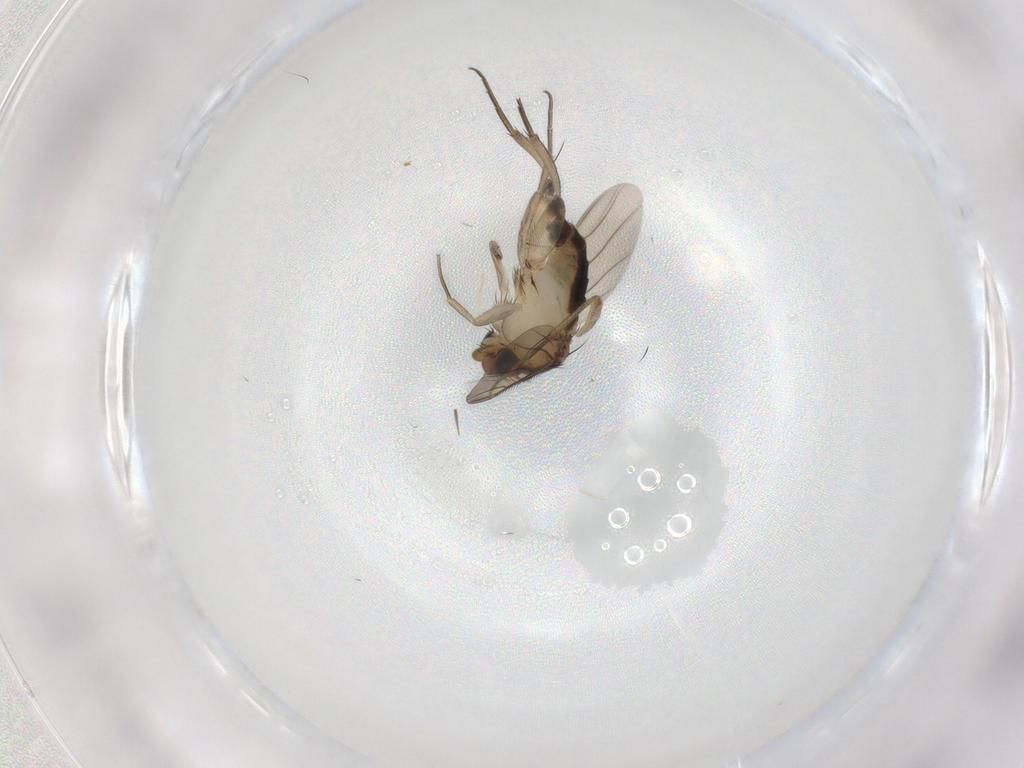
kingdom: Animalia
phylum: Arthropoda
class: Insecta
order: Diptera
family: Phoridae
